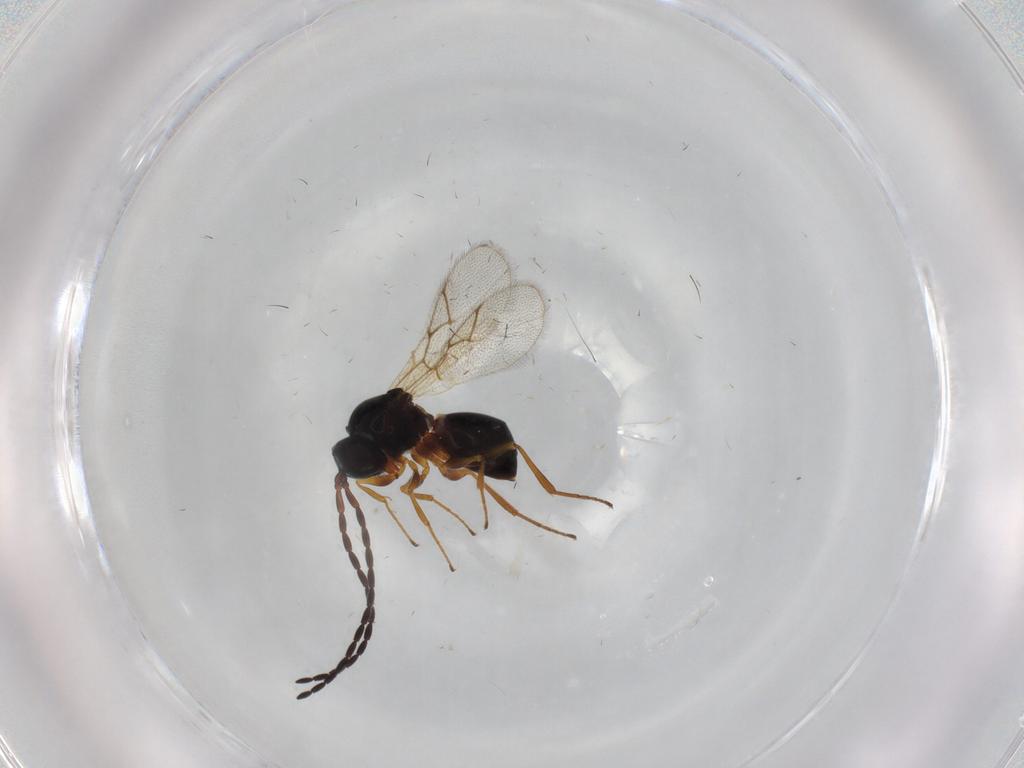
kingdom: Animalia
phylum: Arthropoda
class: Insecta
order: Hymenoptera
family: Figitidae
